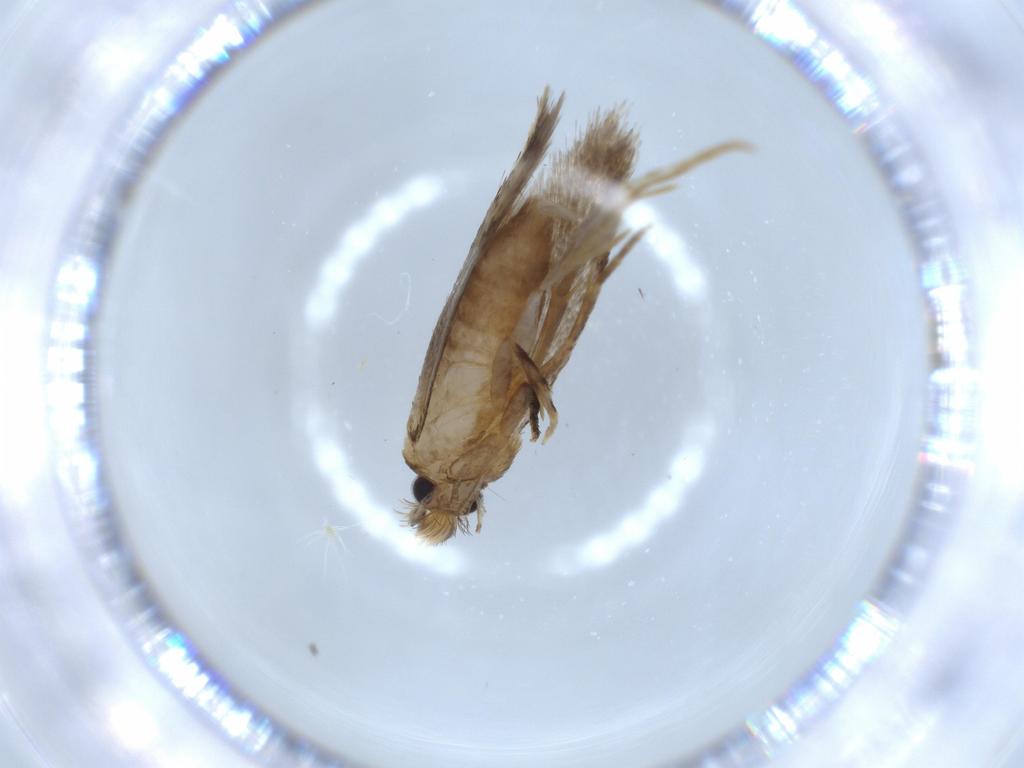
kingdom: Animalia
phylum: Arthropoda
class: Insecta
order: Lepidoptera
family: Tineidae
